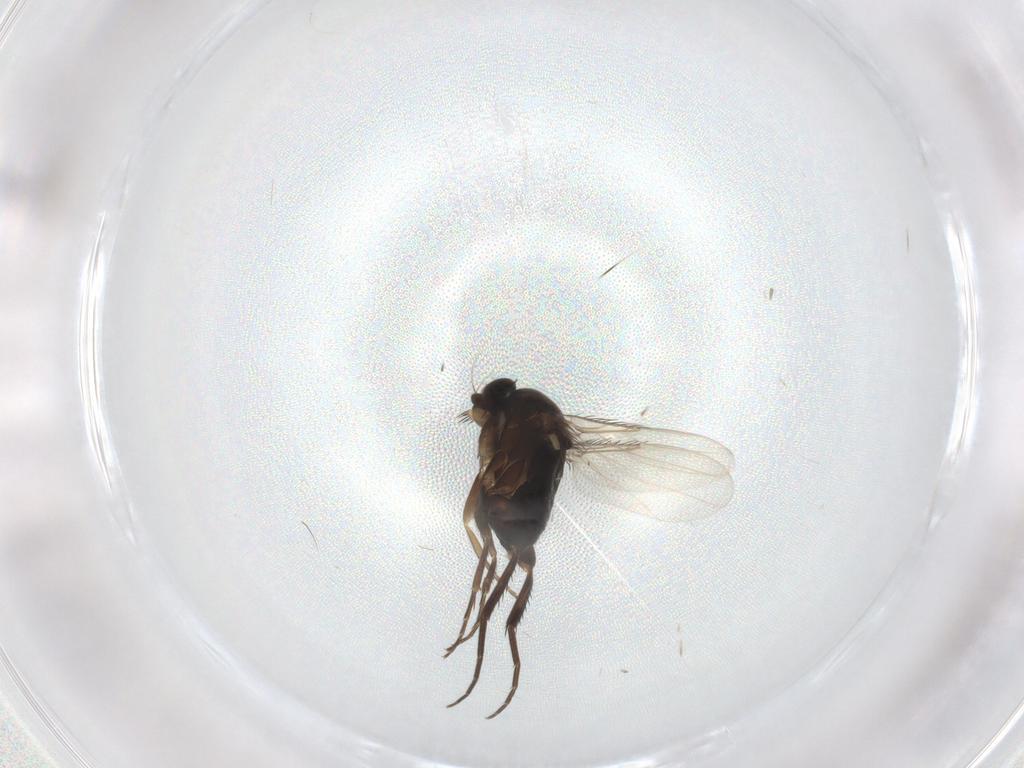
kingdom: Animalia
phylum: Arthropoda
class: Insecta
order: Diptera
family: Phoridae
